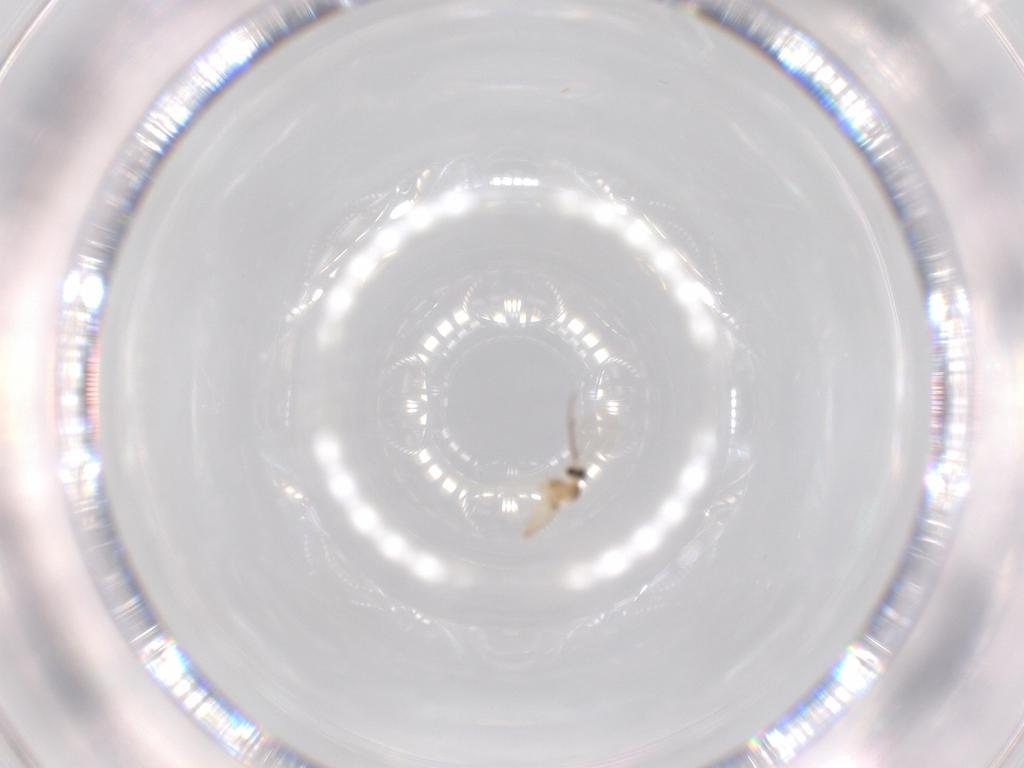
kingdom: Animalia
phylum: Arthropoda
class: Insecta
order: Diptera
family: Cecidomyiidae
